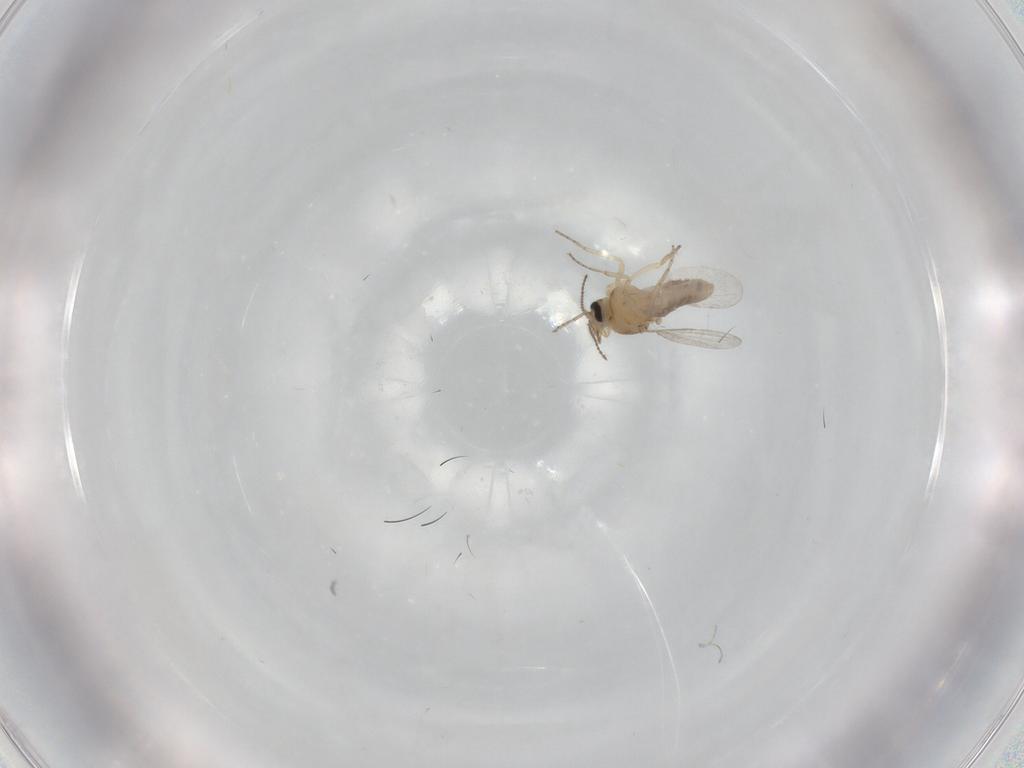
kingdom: Animalia
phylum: Arthropoda
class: Insecta
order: Diptera
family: Ceratopogonidae
